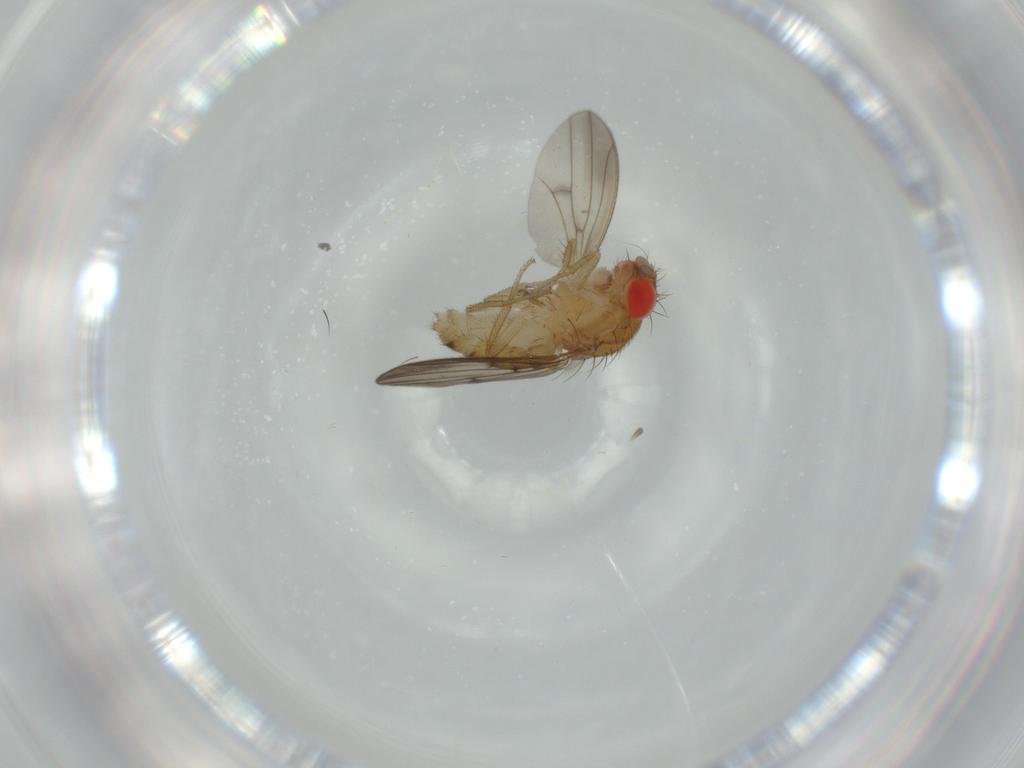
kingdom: Animalia
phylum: Arthropoda
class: Insecta
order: Diptera
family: Drosophilidae
